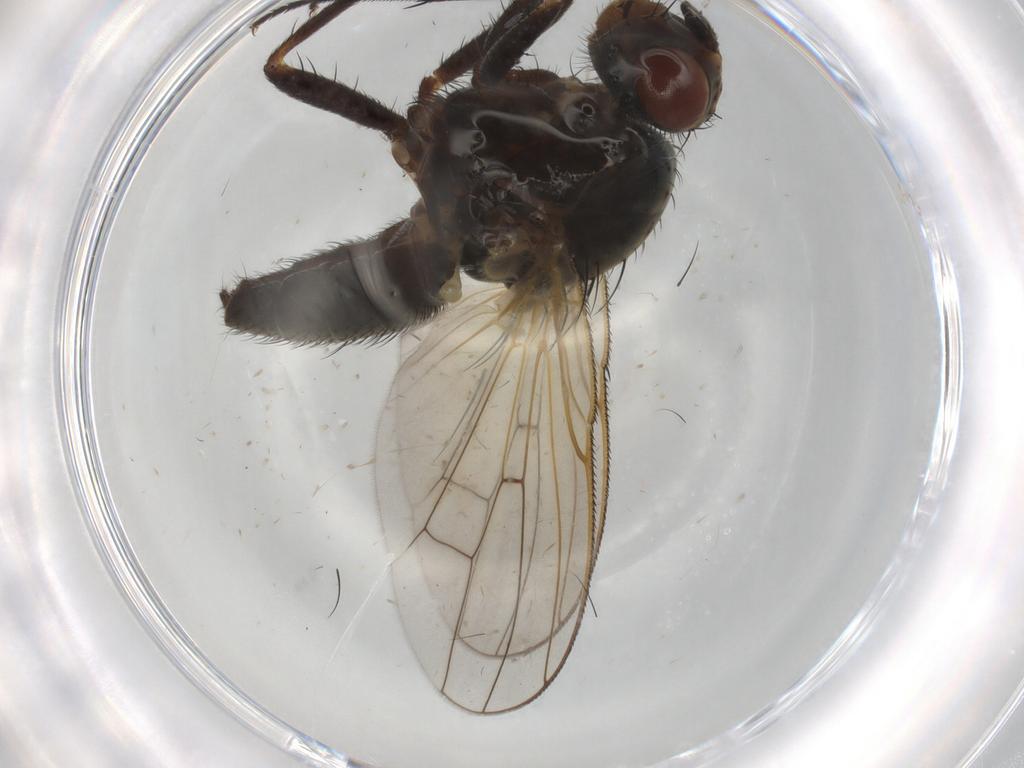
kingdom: Animalia
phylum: Arthropoda
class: Insecta
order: Diptera
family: Anthomyiidae
